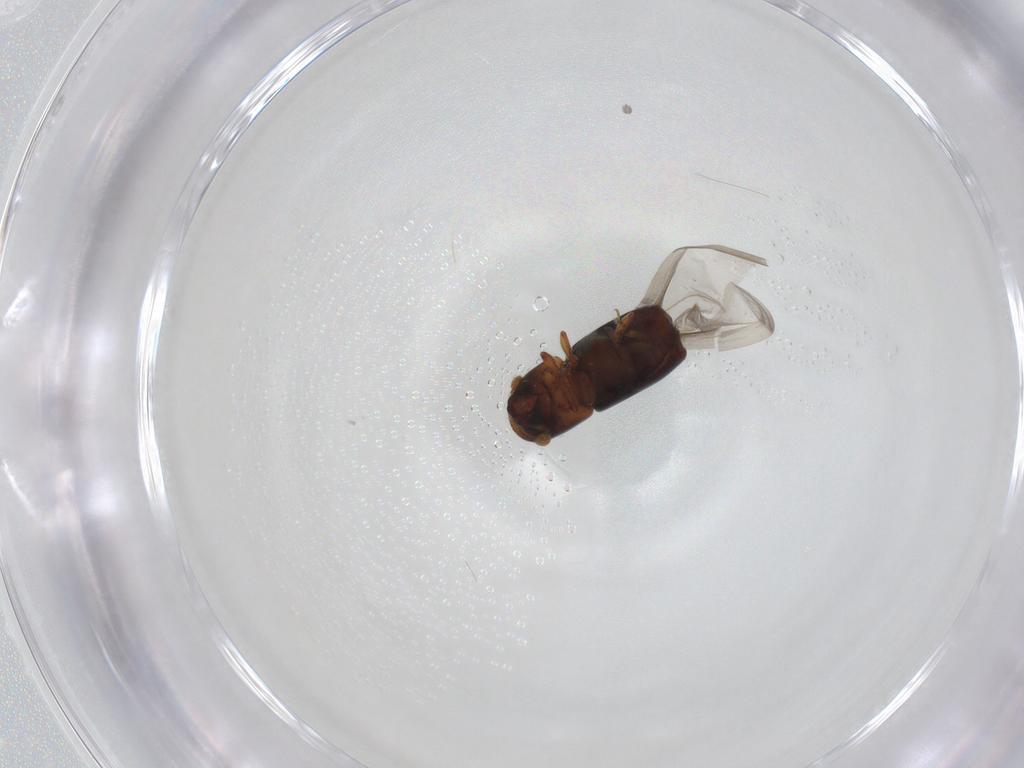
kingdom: Animalia
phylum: Arthropoda
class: Insecta
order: Coleoptera
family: Curculionidae
